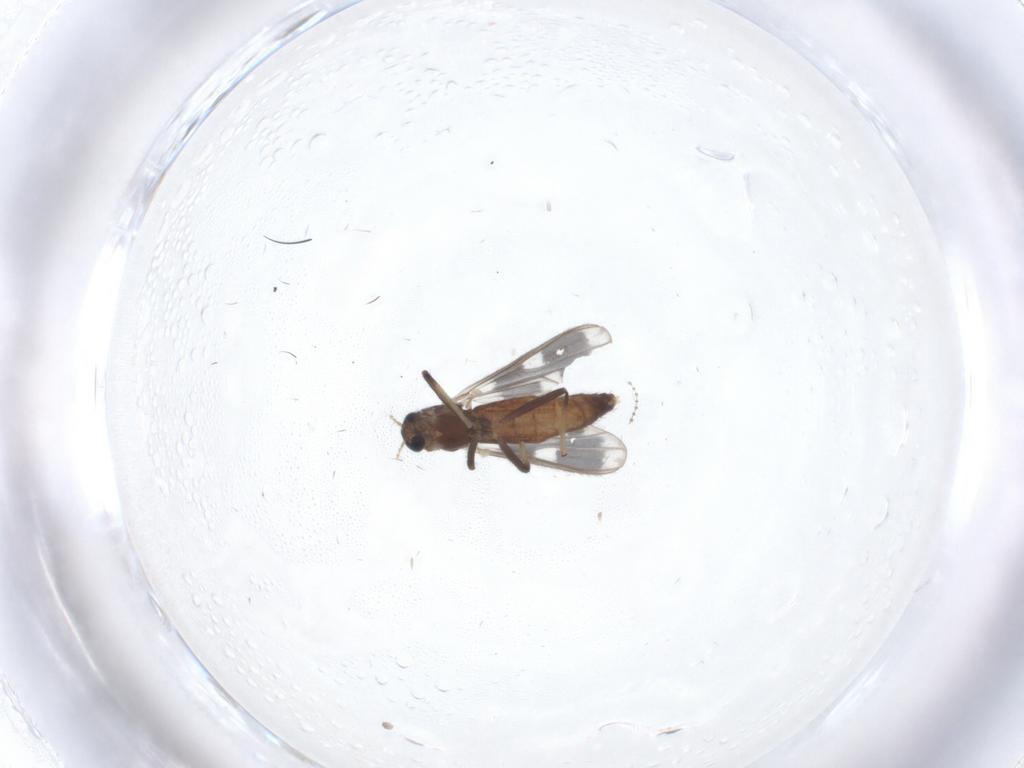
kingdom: Animalia
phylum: Arthropoda
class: Insecta
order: Diptera
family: Chironomidae
